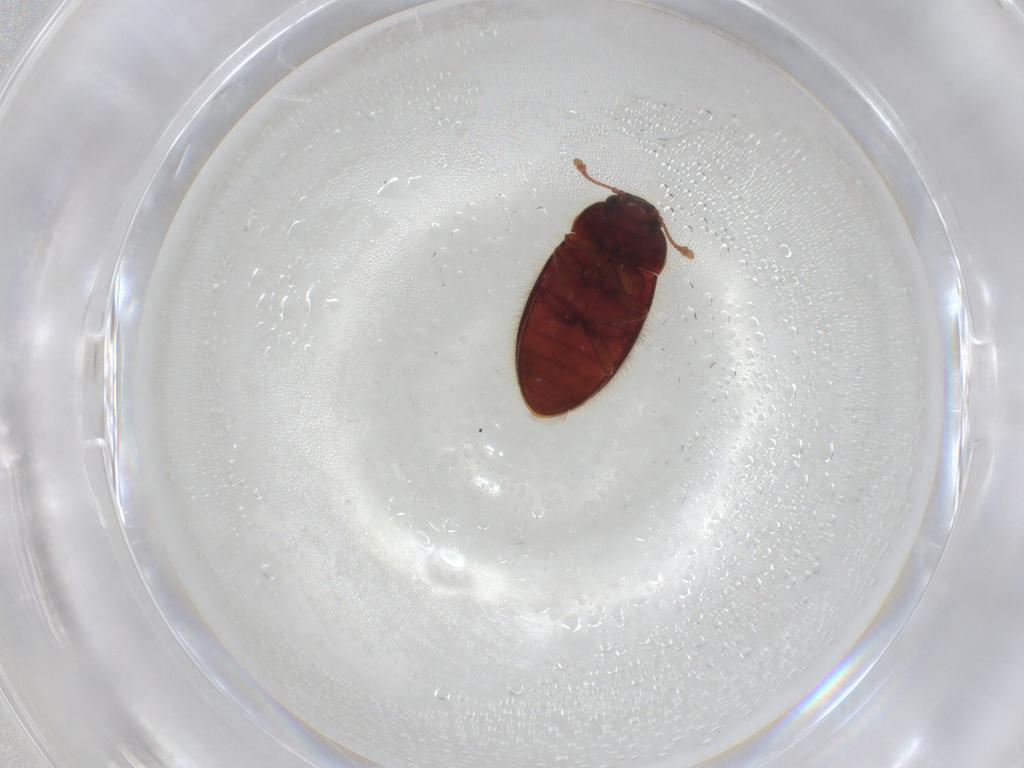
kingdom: Animalia
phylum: Arthropoda
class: Insecta
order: Coleoptera
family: Biphyllidae
